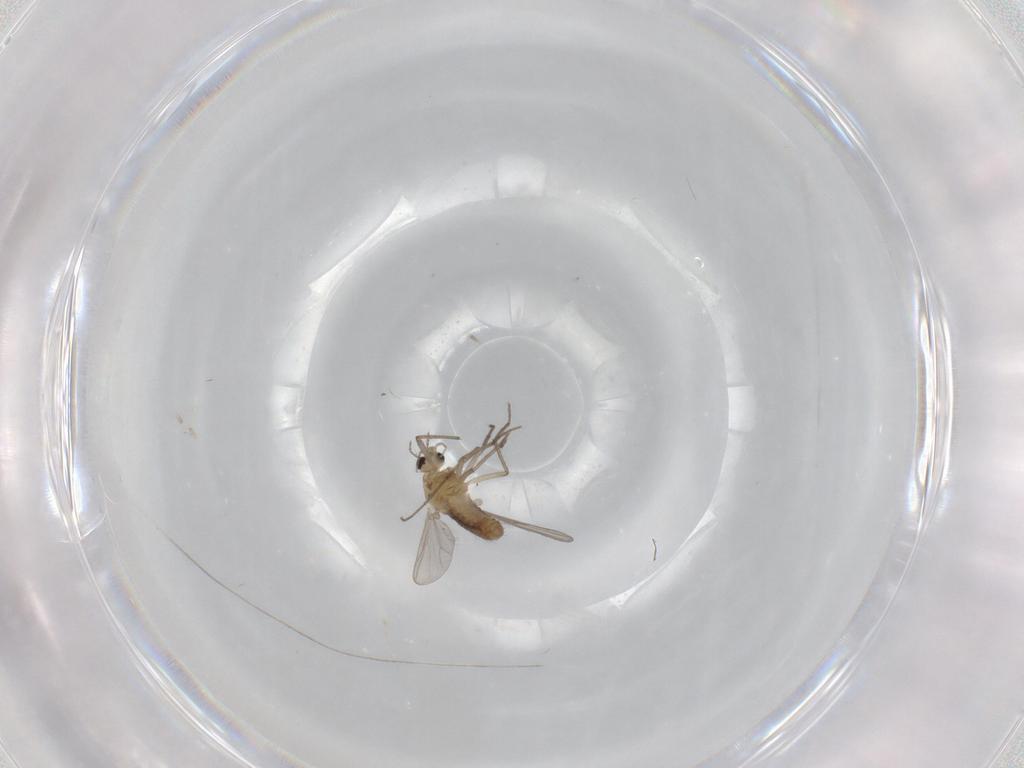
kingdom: Animalia
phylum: Arthropoda
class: Insecta
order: Diptera
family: Chironomidae
